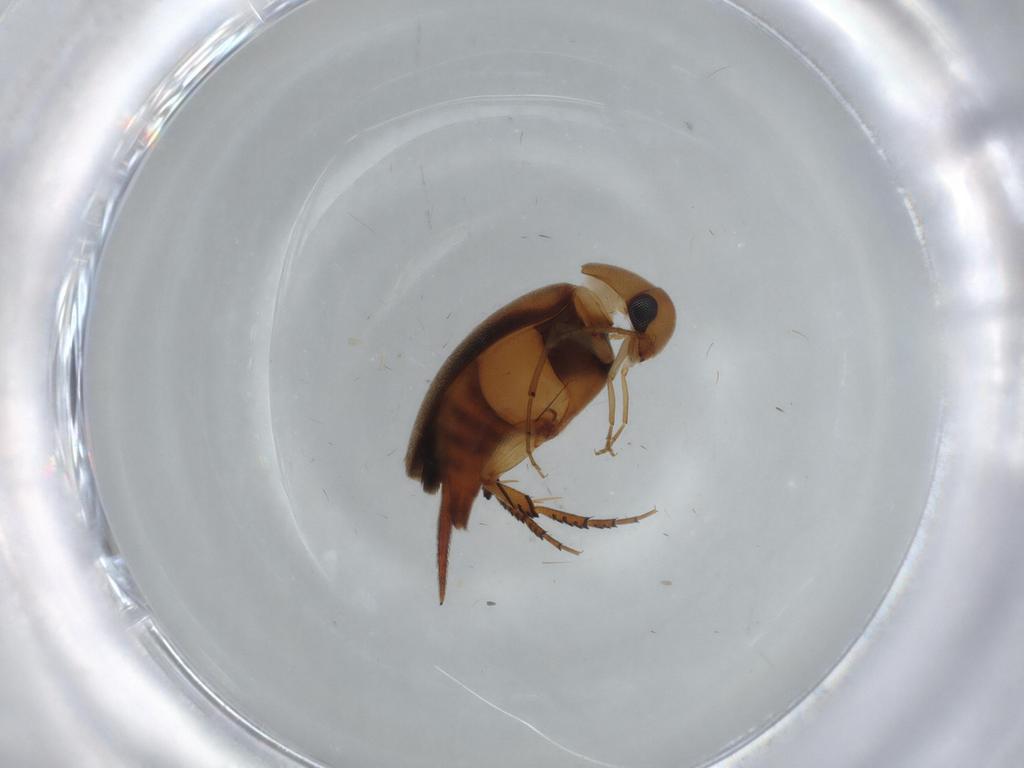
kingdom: Animalia
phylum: Arthropoda
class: Insecta
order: Coleoptera
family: Mordellidae
